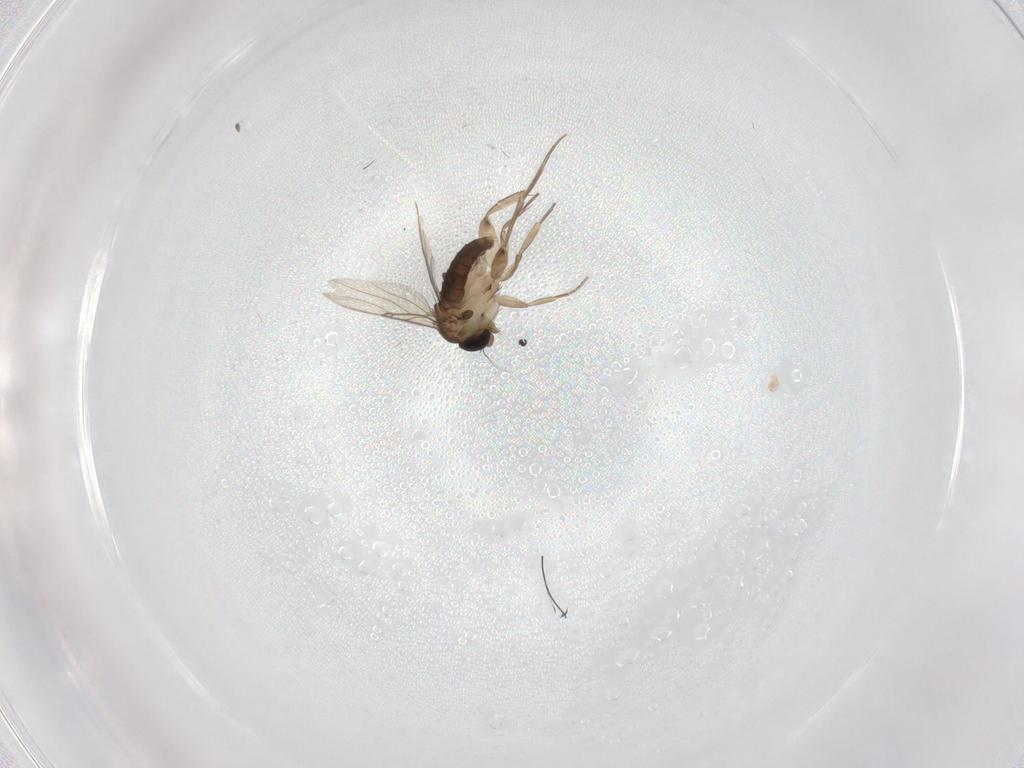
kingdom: Animalia
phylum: Arthropoda
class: Insecta
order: Diptera
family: Phoridae
